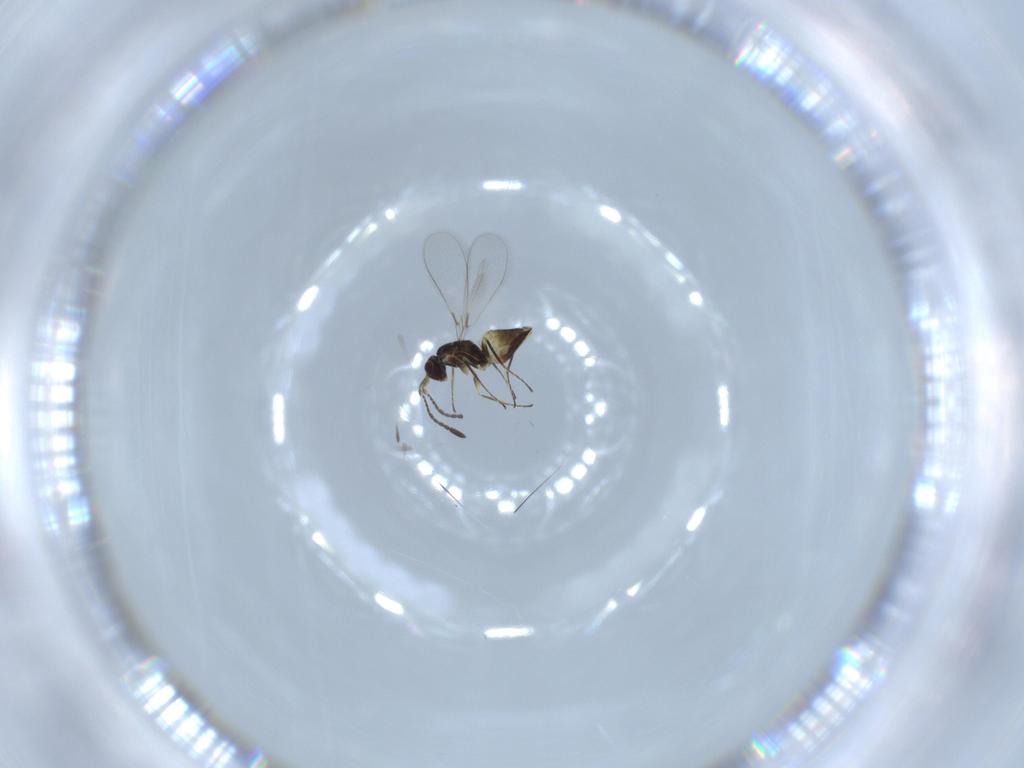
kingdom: Animalia
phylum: Arthropoda
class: Insecta
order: Hymenoptera
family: Mymaridae
